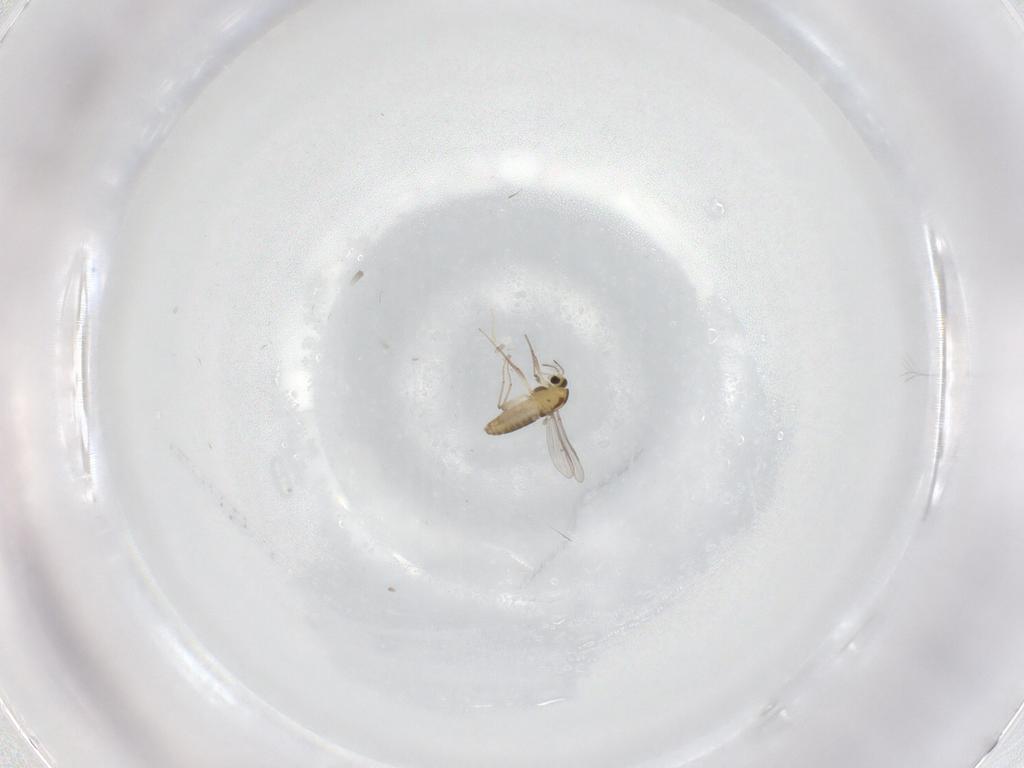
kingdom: Animalia
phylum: Arthropoda
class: Insecta
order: Diptera
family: Chironomidae
